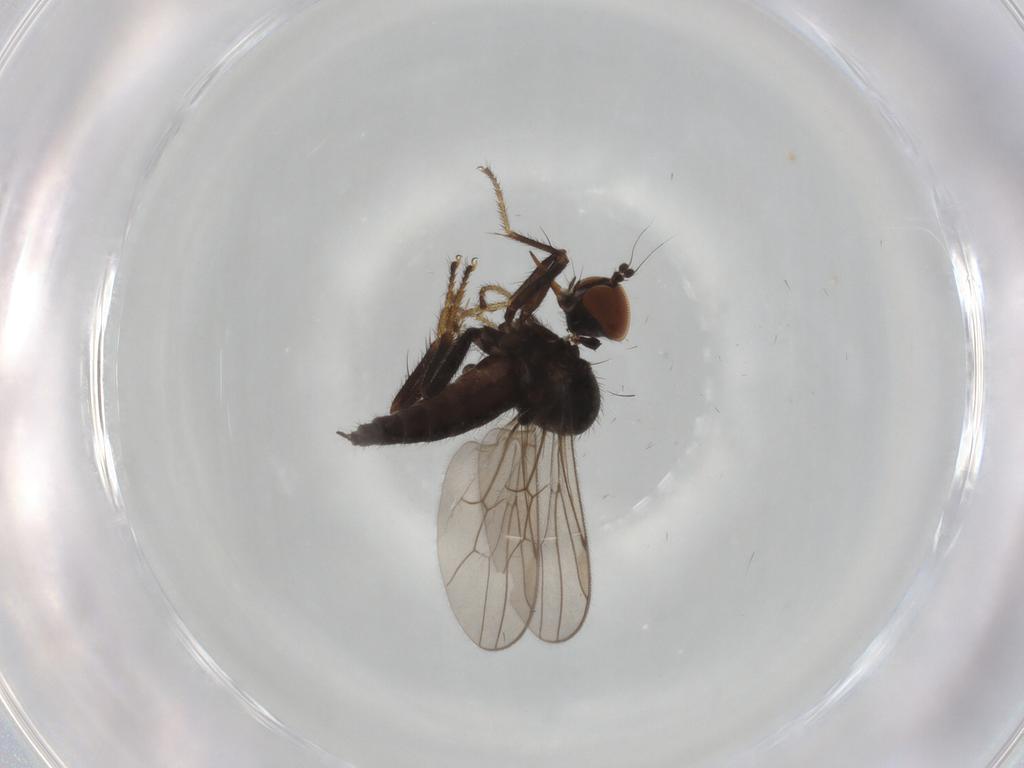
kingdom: Animalia
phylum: Arthropoda
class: Insecta
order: Diptera
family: Hybotidae
